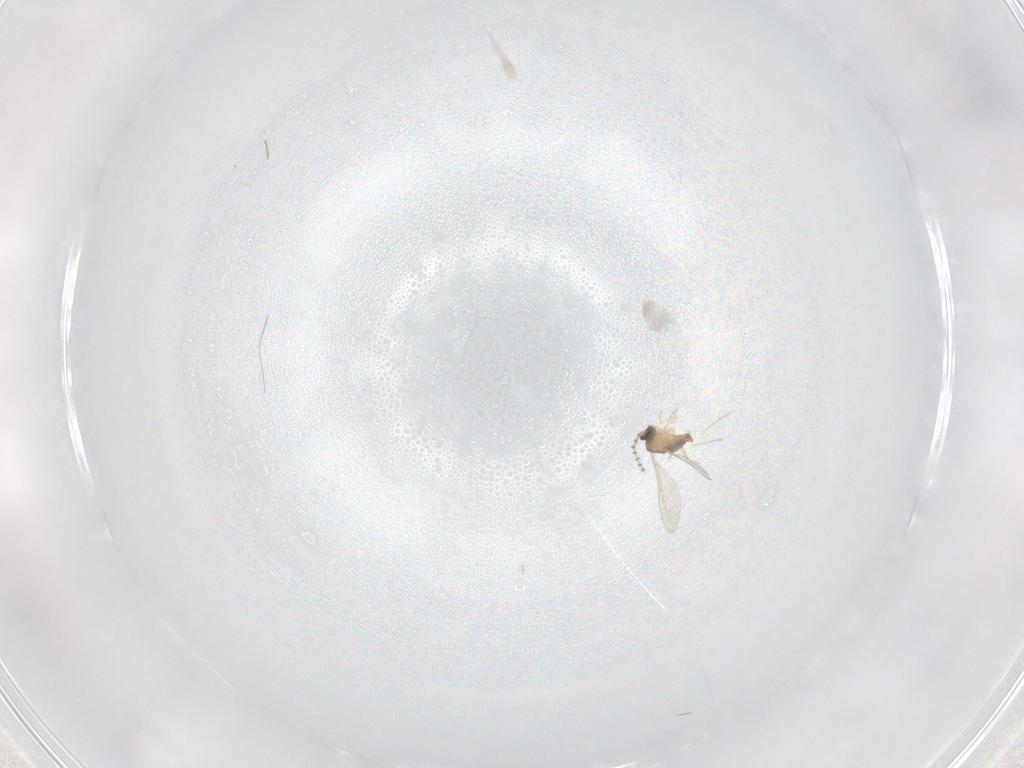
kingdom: Animalia
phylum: Arthropoda
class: Insecta
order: Diptera
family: Cecidomyiidae
